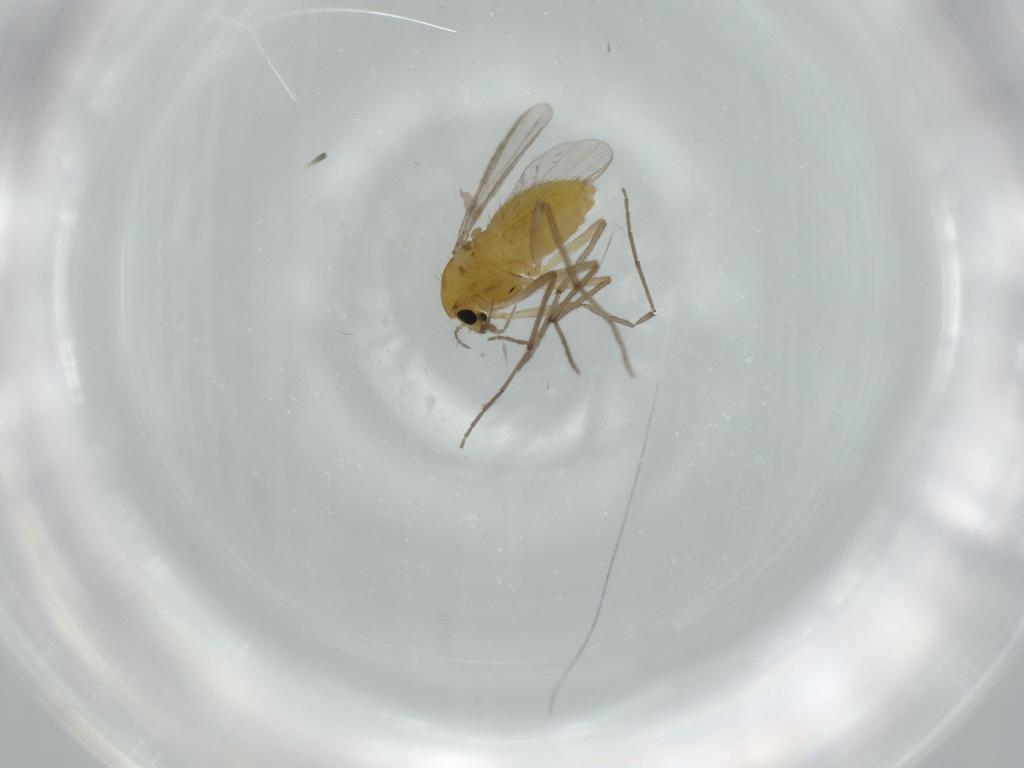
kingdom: Animalia
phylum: Arthropoda
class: Insecta
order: Diptera
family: Chironomidae
